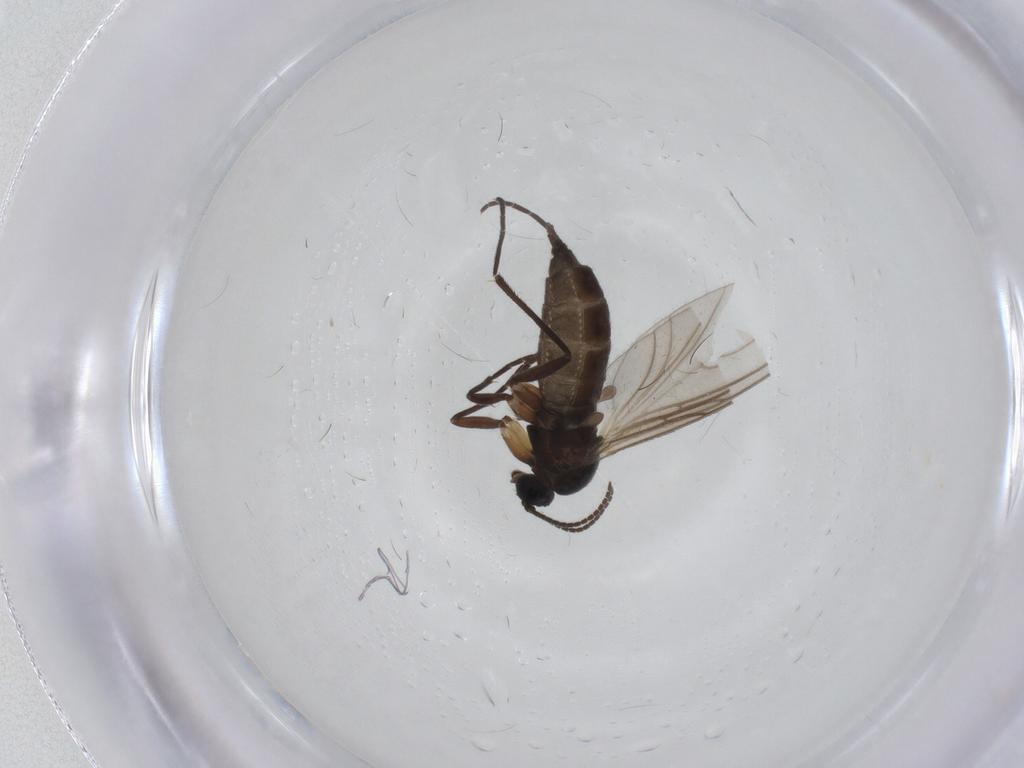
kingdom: Animalia
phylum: Arthropoda
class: Insecta
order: Diptera
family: Sciaridae
